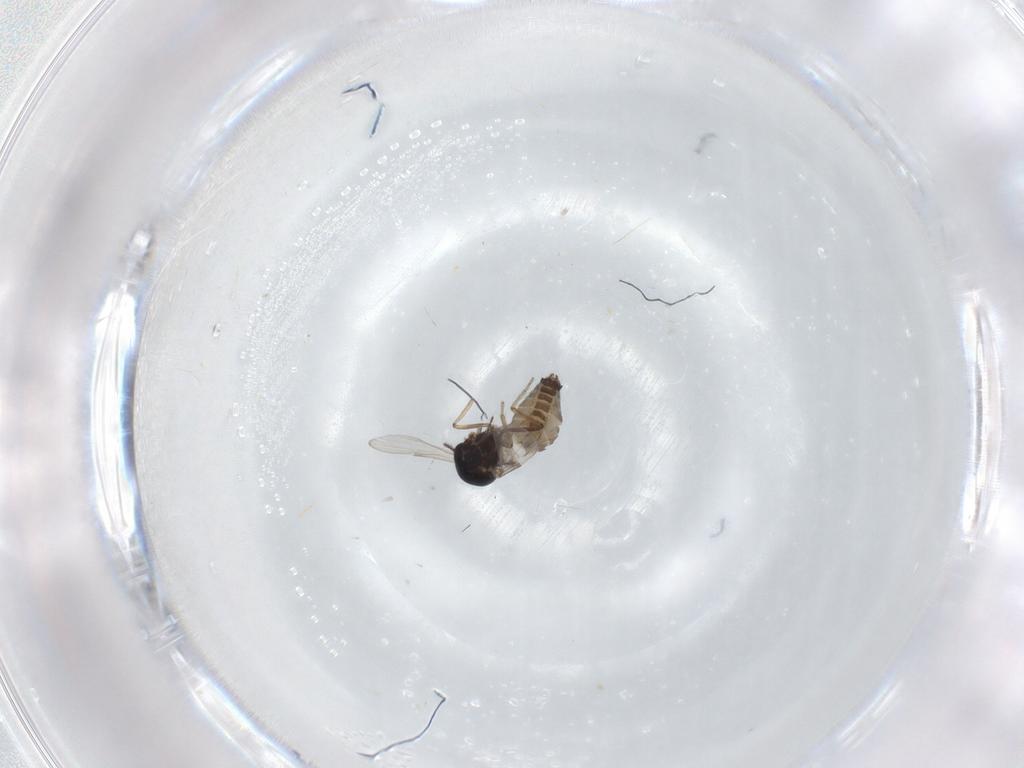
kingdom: Animalia
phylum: Arthropoda
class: Insecta
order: Diptera
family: Ceratopogonidae
